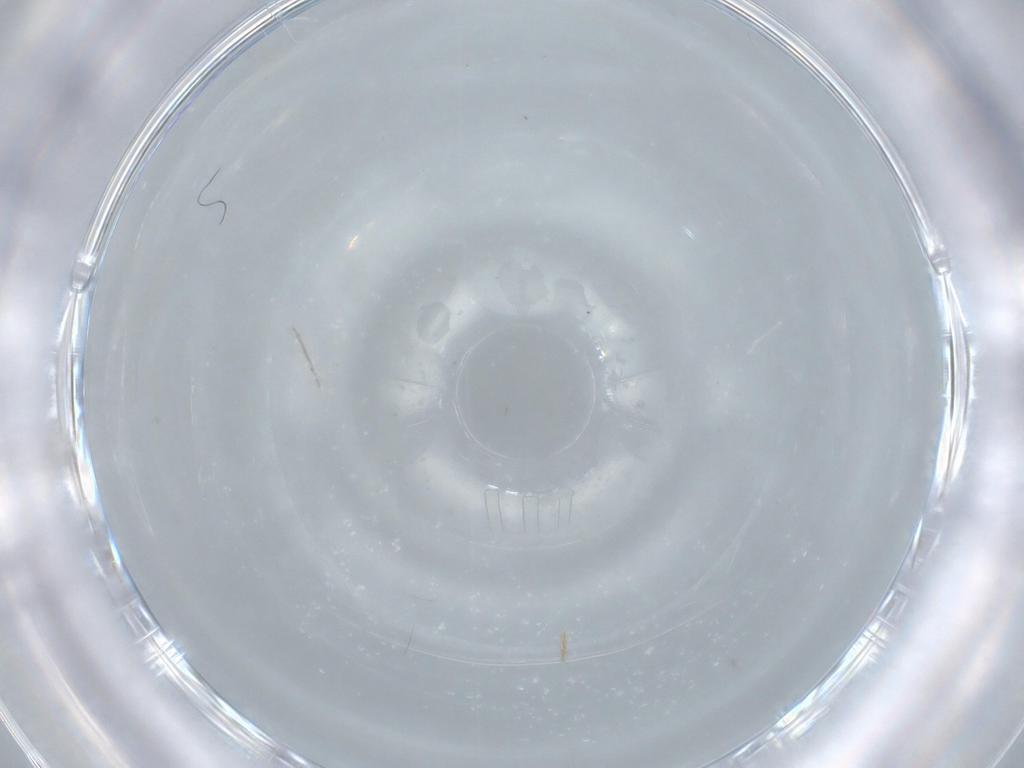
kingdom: Animalia
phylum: Arthropoda
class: Insecta
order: Diptera
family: Cecidomyiidae
